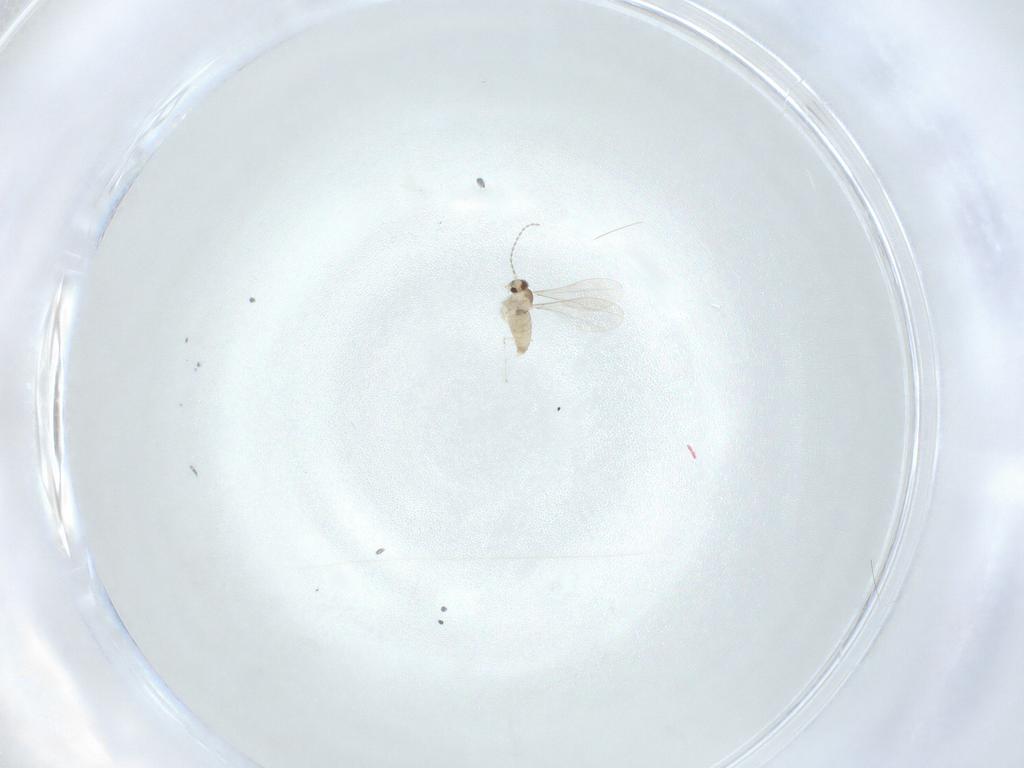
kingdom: Animalia
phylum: Arthropoda
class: Insecta
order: Diptera
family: Cecidomyiidae
